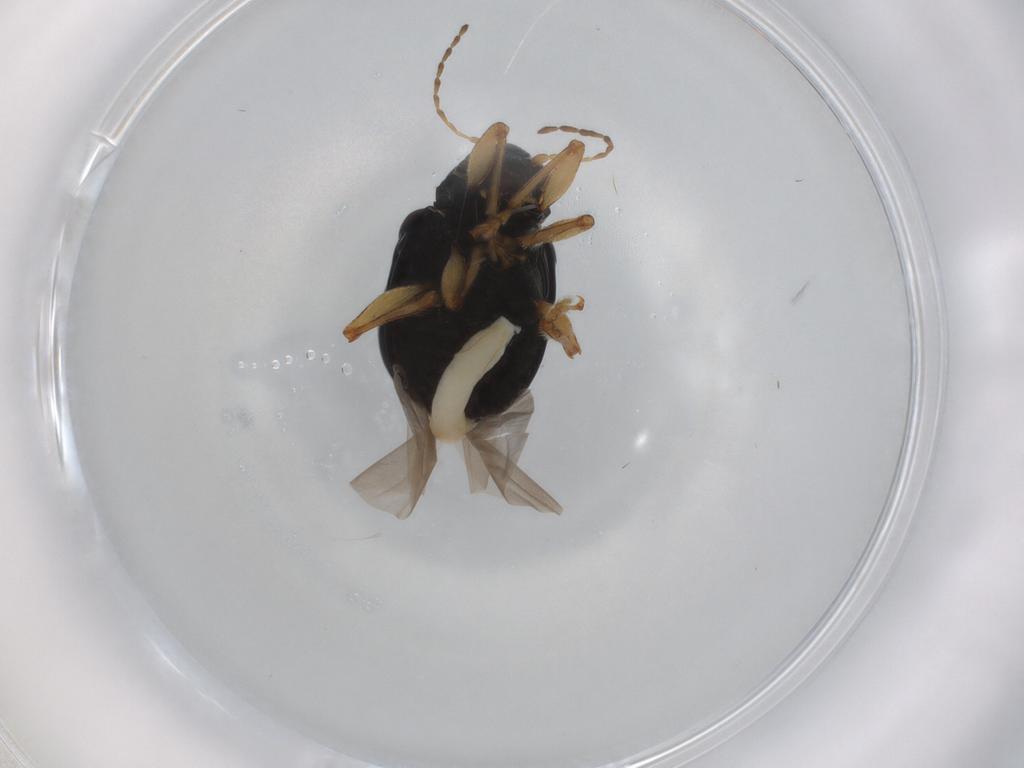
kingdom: Animalia
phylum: Arthropoda
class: Insecta
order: Coleoptera
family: Chrysomelidae
